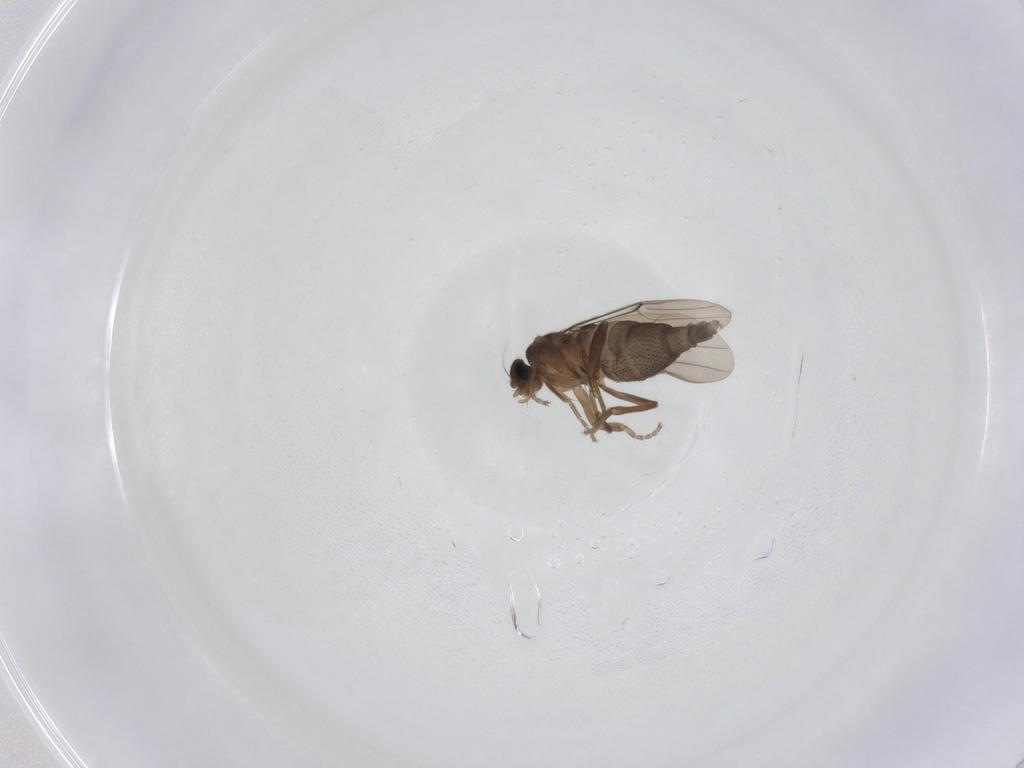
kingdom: Animalia
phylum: Arthropoda
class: Insecta
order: Diptera
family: Phoridae
